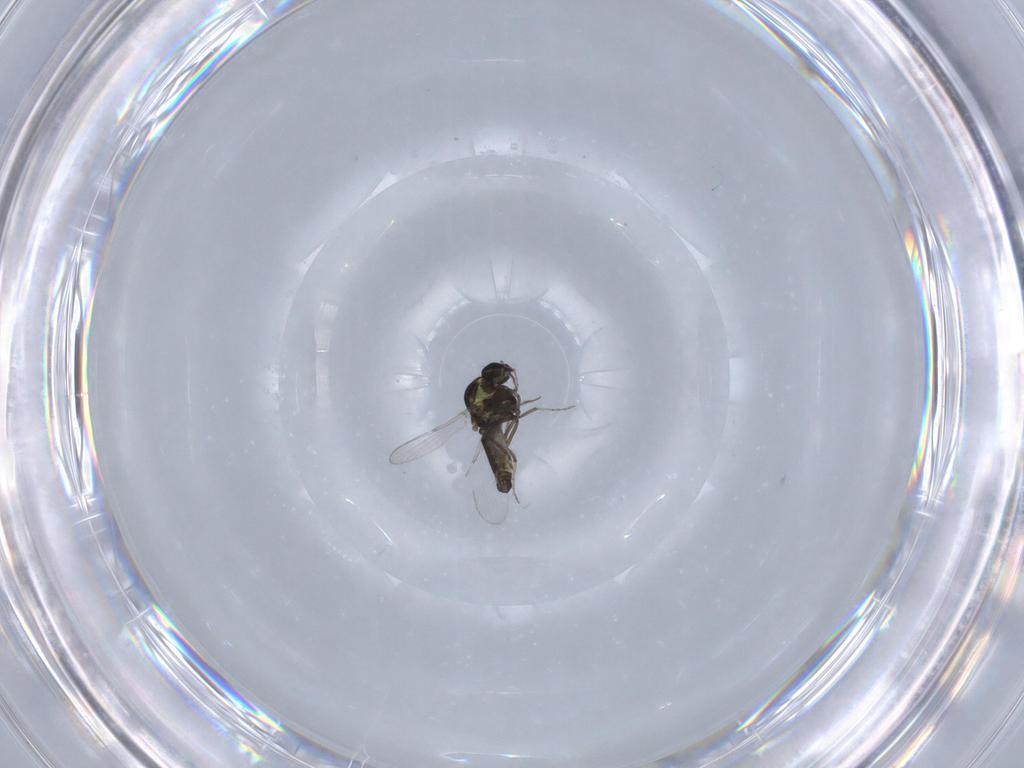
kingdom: Animalia
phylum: Arthropoda
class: Insecta
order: Diptera
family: Ceratopogonidae
